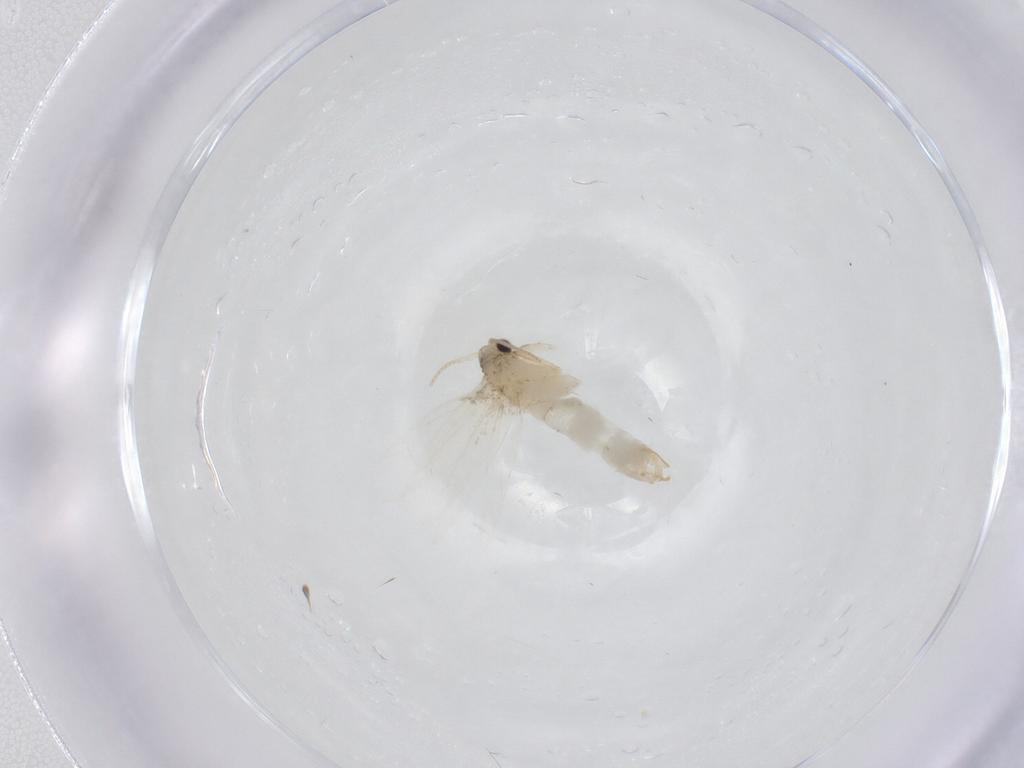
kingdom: Animalia
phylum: Arthropoda
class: Insecta
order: Lepidoptera
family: Lycaenidae
